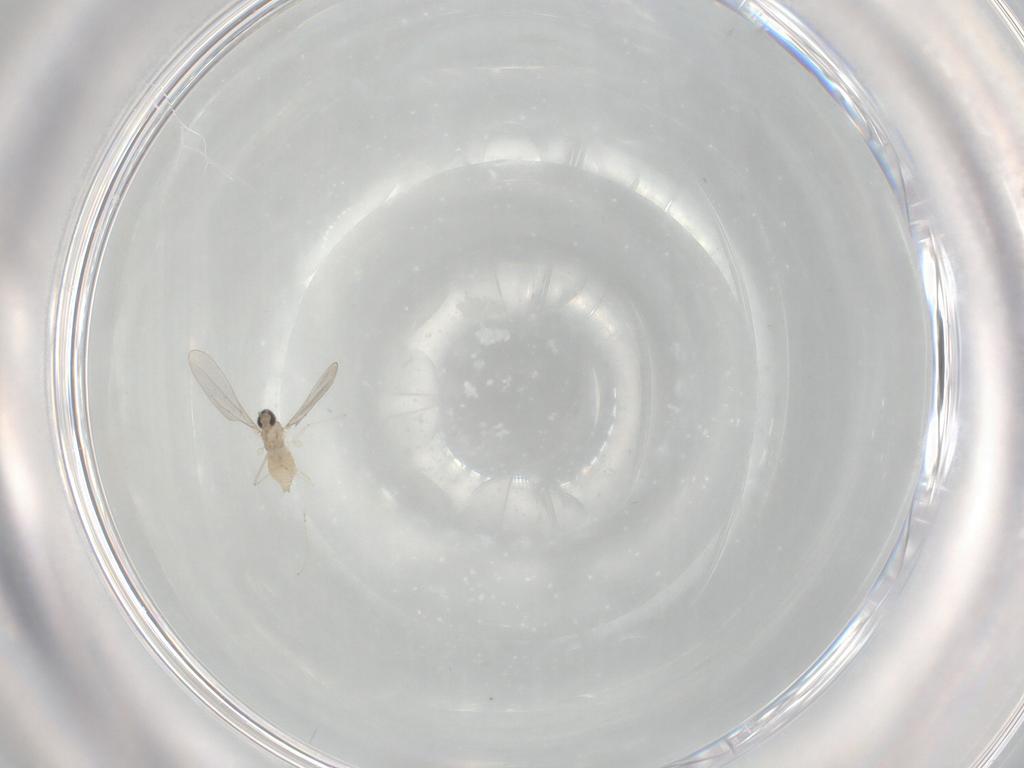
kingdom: Animalia
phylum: Arthropoda
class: Insecta
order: Diptera
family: Cecidomyiidae
